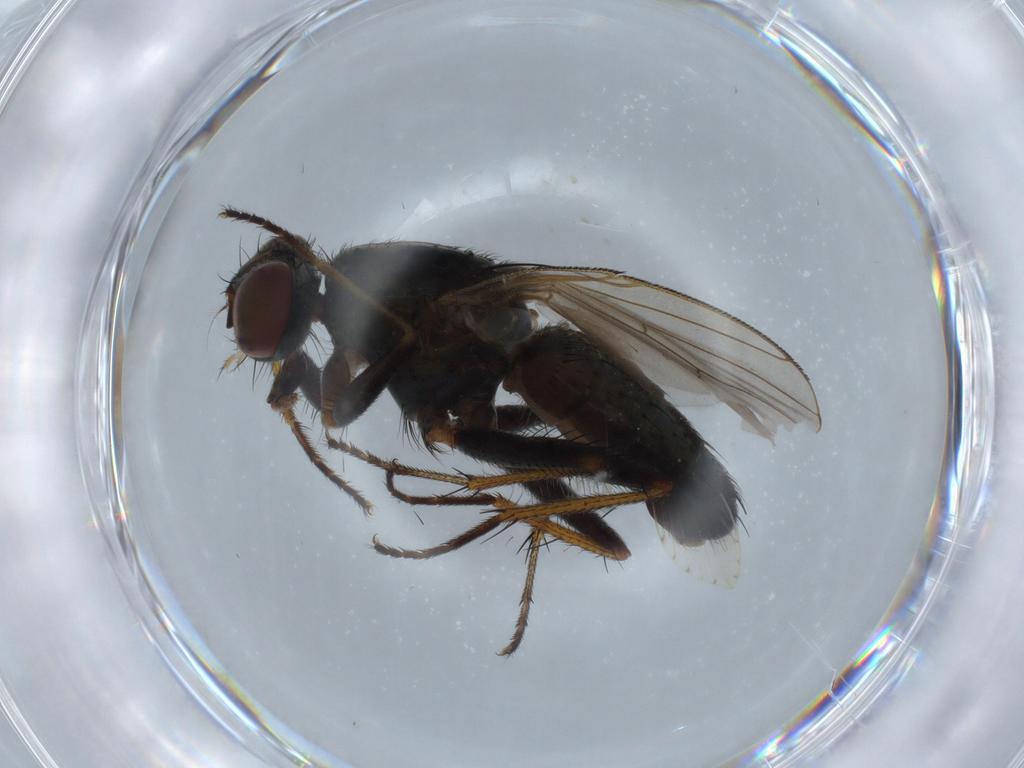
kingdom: Animalia
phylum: Arthropoda
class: Insecta
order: Diptera
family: Muscidae
